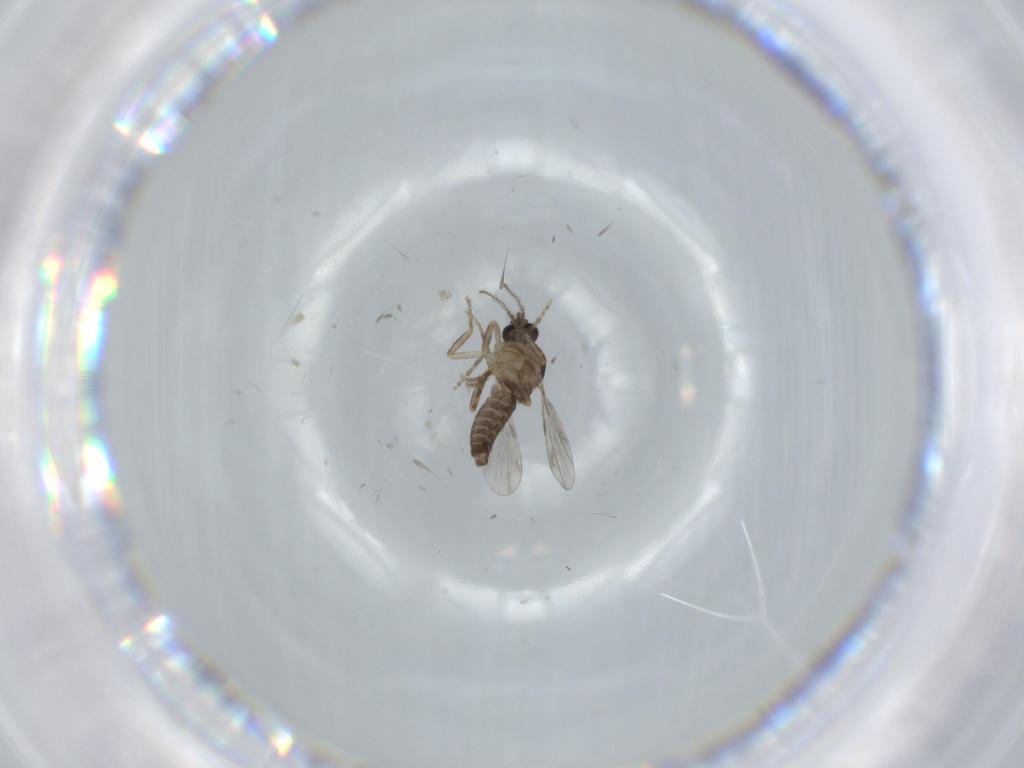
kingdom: Animalia
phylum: Arthropoda
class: Insecta
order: Diptera
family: Ceratopogonidae
